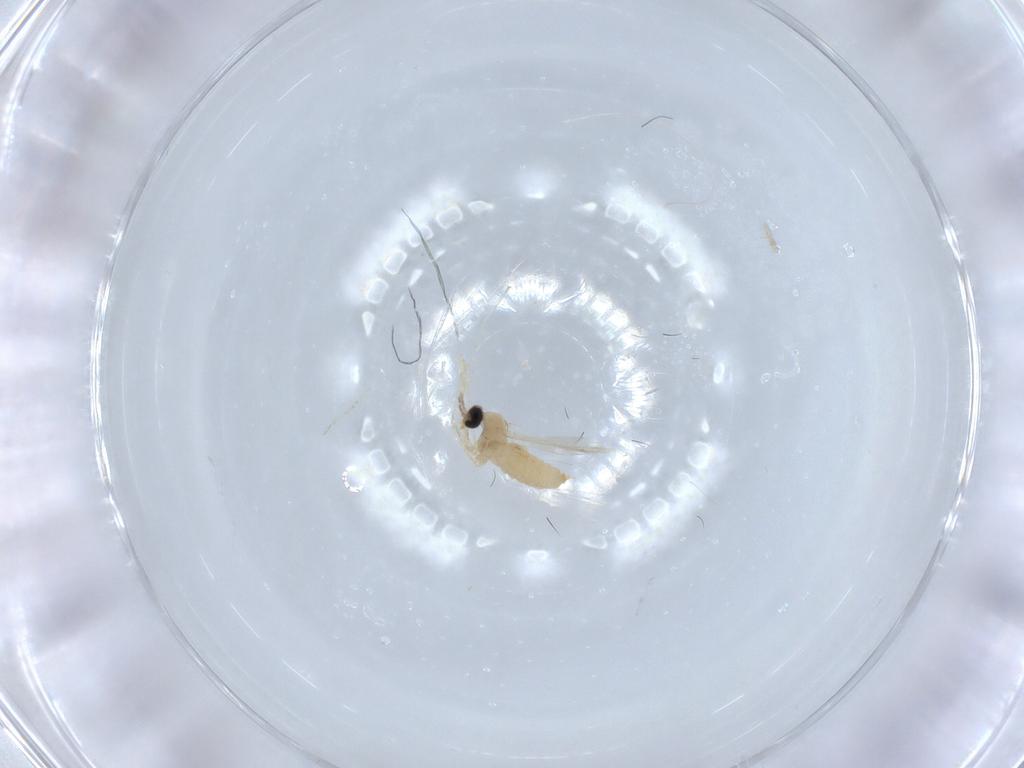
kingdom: Animalia
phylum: Arthropoda
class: Insecta
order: Diptera
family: Cecidomyiidae
